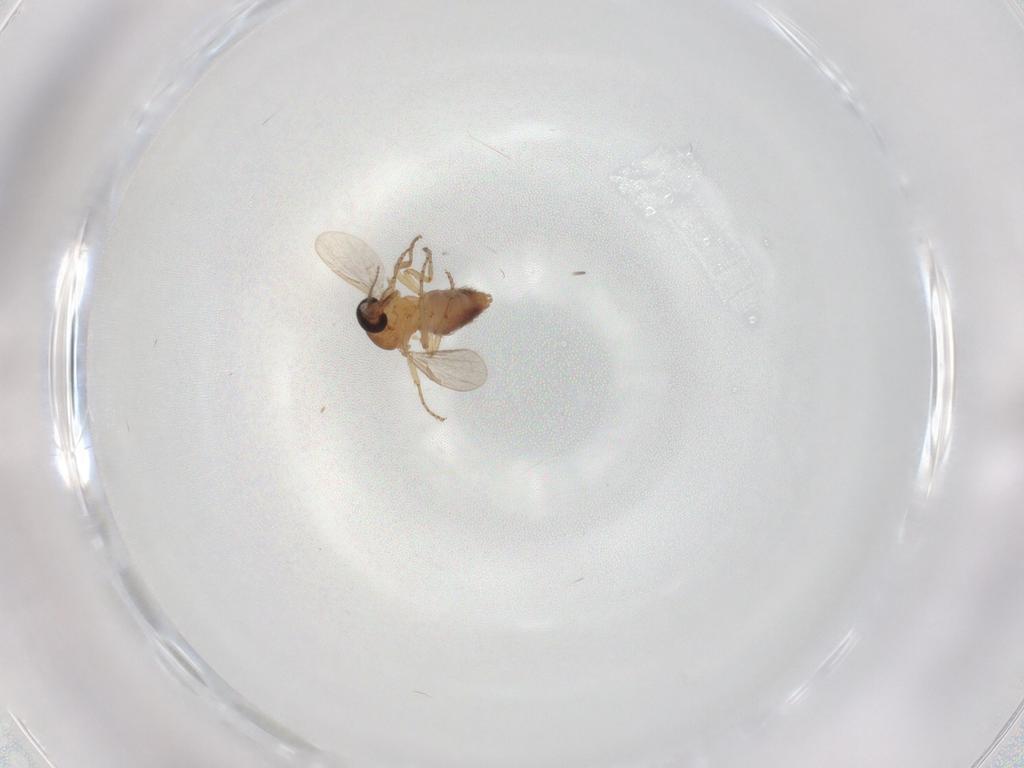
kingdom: Animalia
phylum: Arthropoda
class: Insecta
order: Diptera
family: Ceratopogonidae
